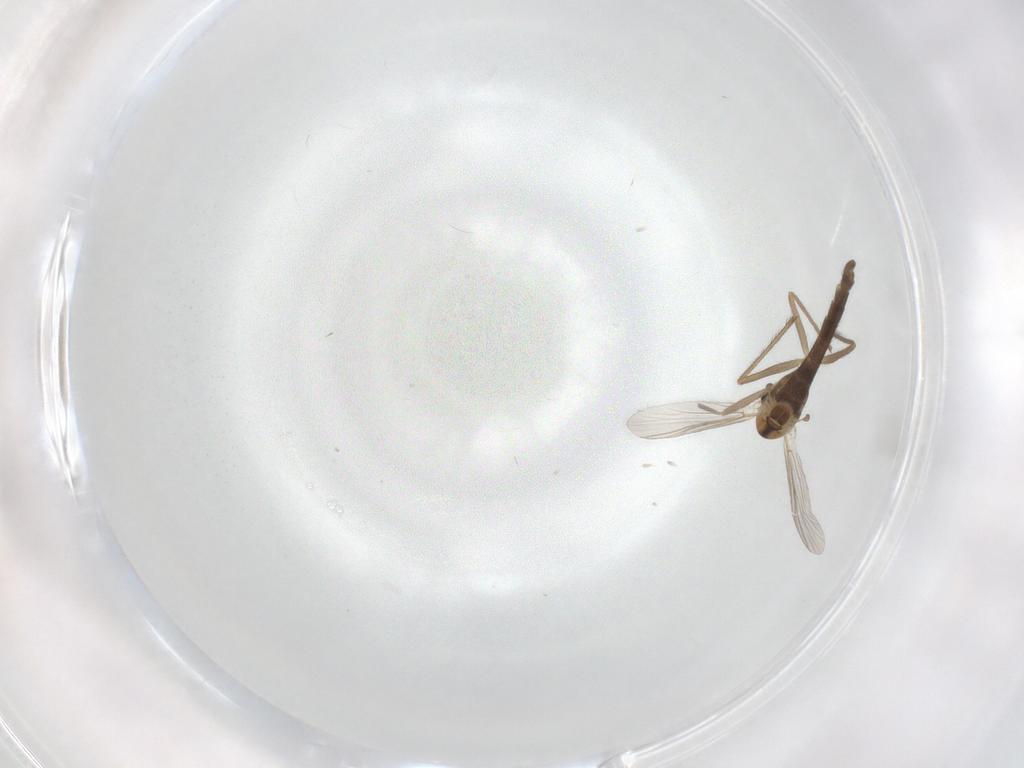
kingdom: Animalia
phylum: Arthropoda
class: Insecta
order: Diptera
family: Chironomidae
